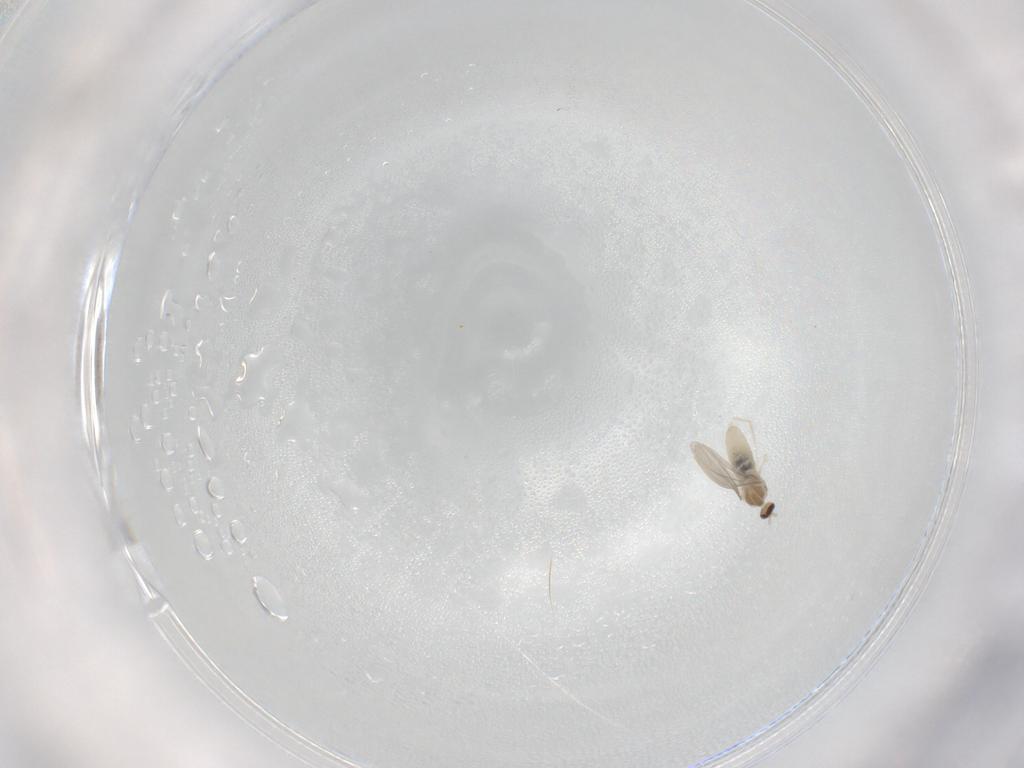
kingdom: Animalia
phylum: Arthropoda
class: Insecta
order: Diptera
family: Cecidomyiidae
